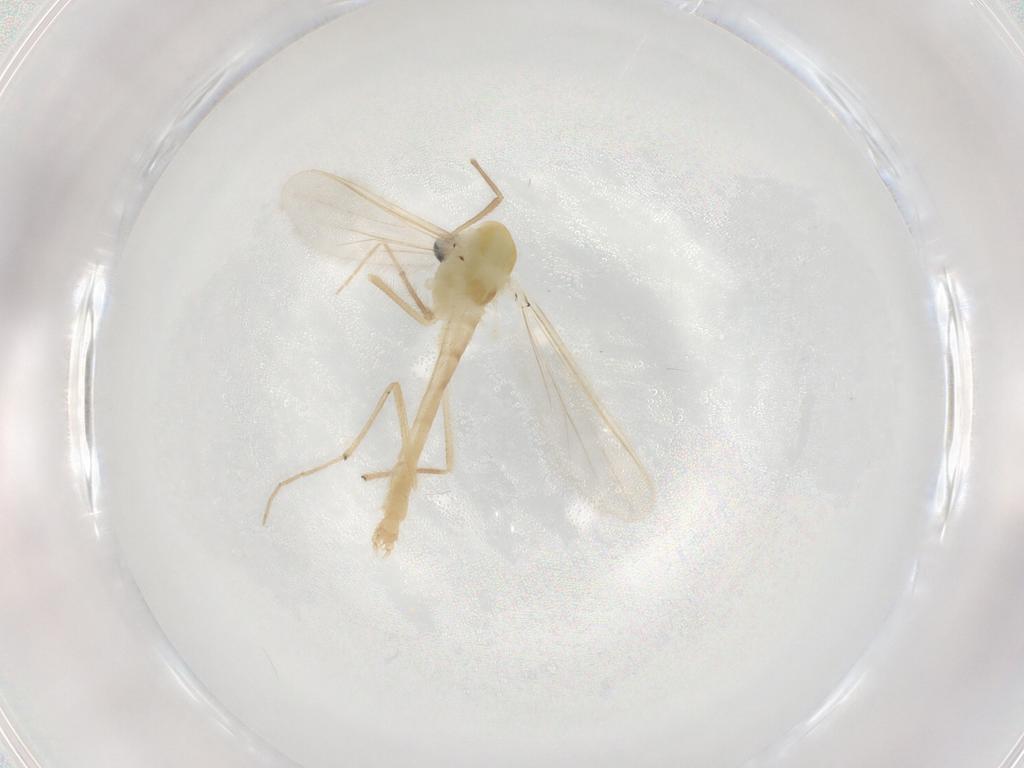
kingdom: Animalia
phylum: Arthropoda
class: Insecta
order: Diptera
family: Chironomidae
